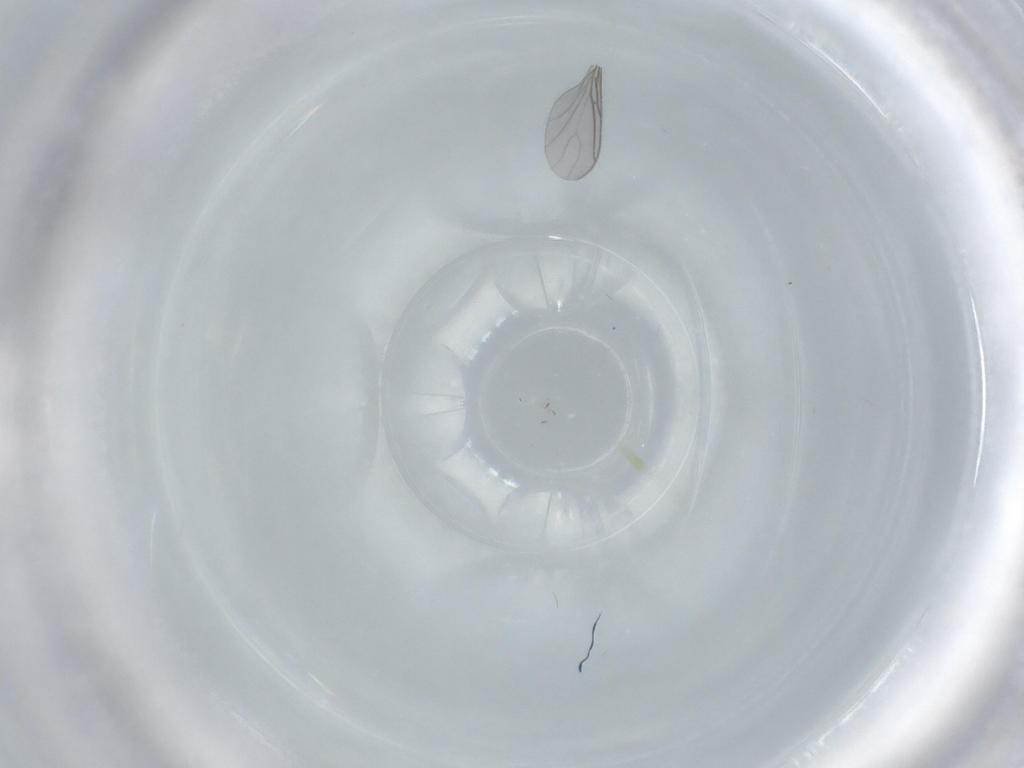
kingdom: Animalia
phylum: Arthropoda
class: Insecta
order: Diptera
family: Sciaridae
